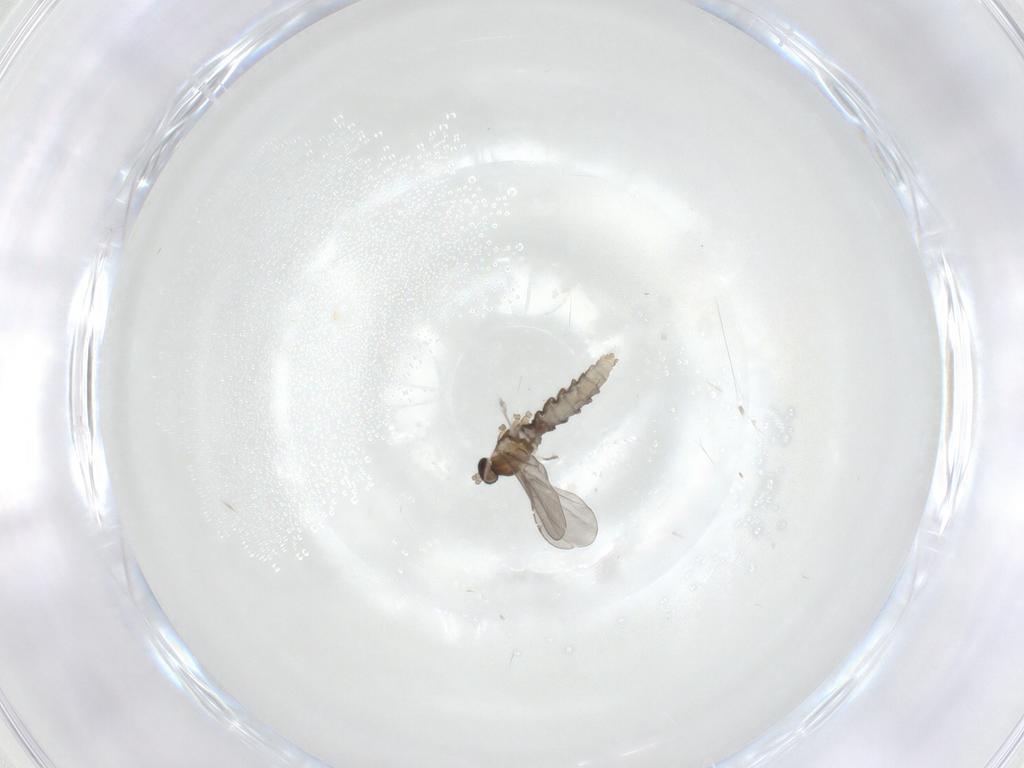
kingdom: Animalia
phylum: Arthropoda
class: Insecta
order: Diptera
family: Cecidomyiidae
